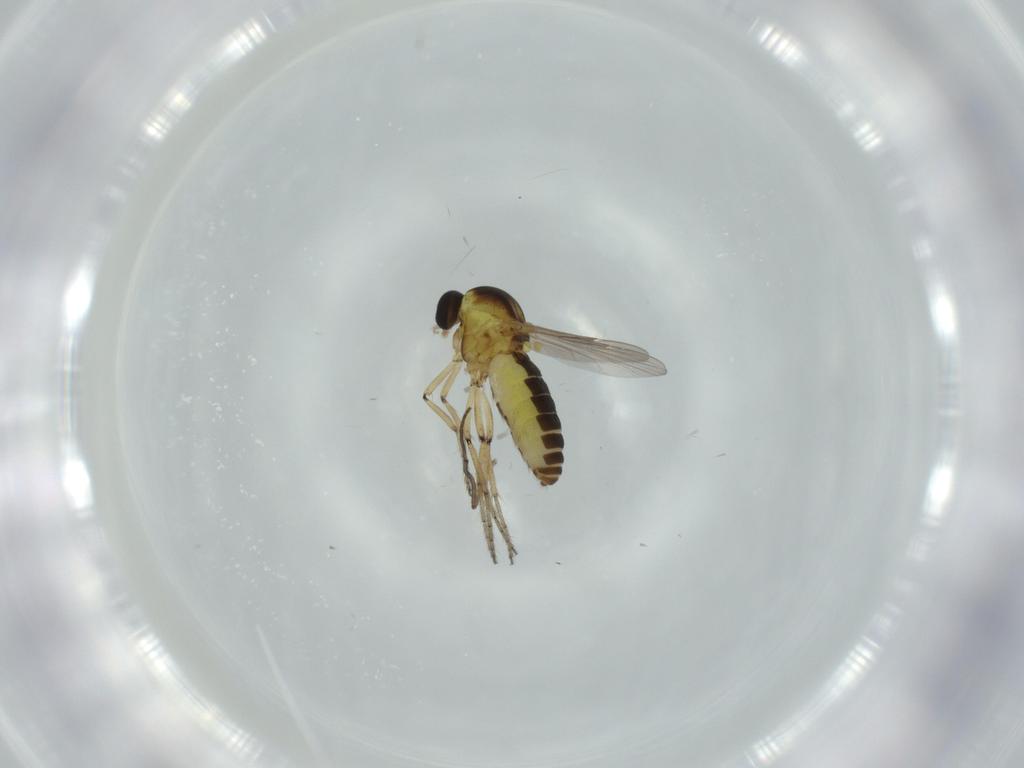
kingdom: Animalia
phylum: Arthropoda
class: Insecta
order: Diptera
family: Ceratopogonidae
